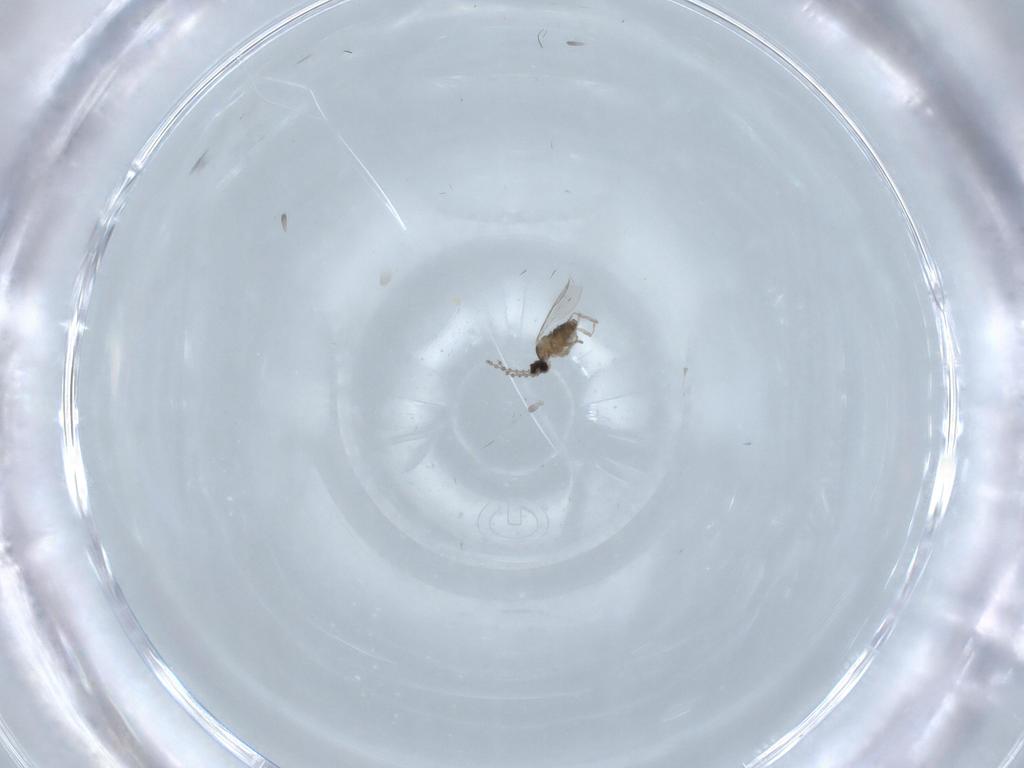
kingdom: Animalia
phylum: Arthropoda
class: Insecta
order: Diptera
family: Cecidomyiidae
